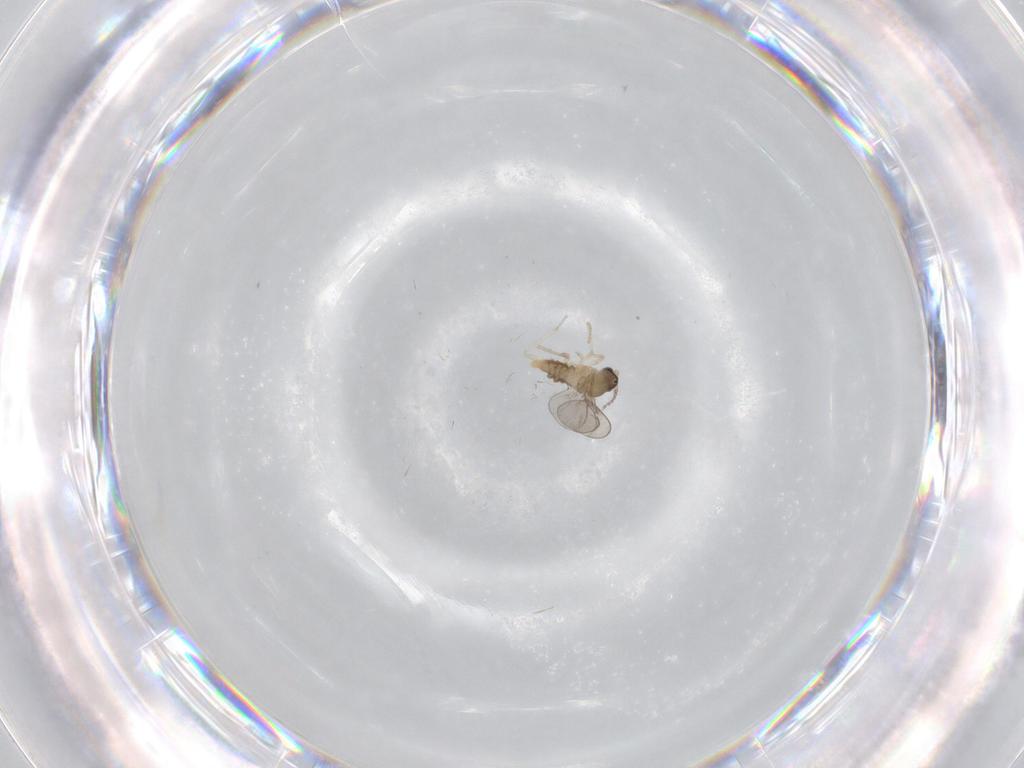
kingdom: Animalia
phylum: Arthropoda
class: Insecta
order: Diptera
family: Cecidomyiidae
